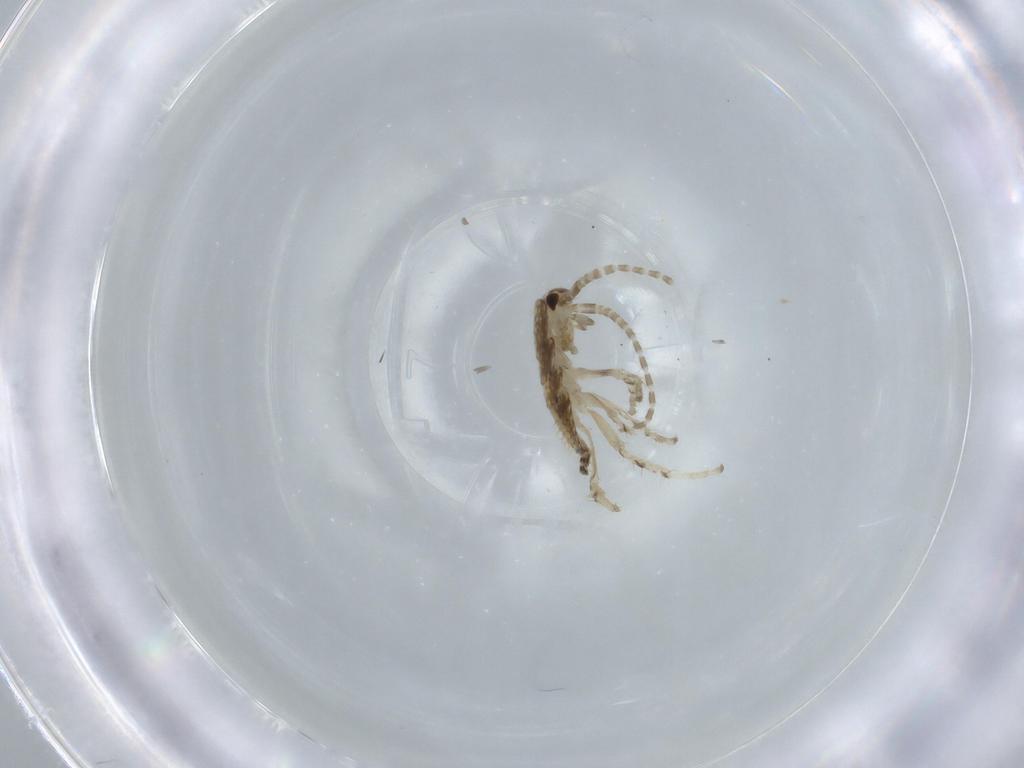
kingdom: Animalia
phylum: Arthropoda
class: Insecta
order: Blattodea
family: Ectobiidae
